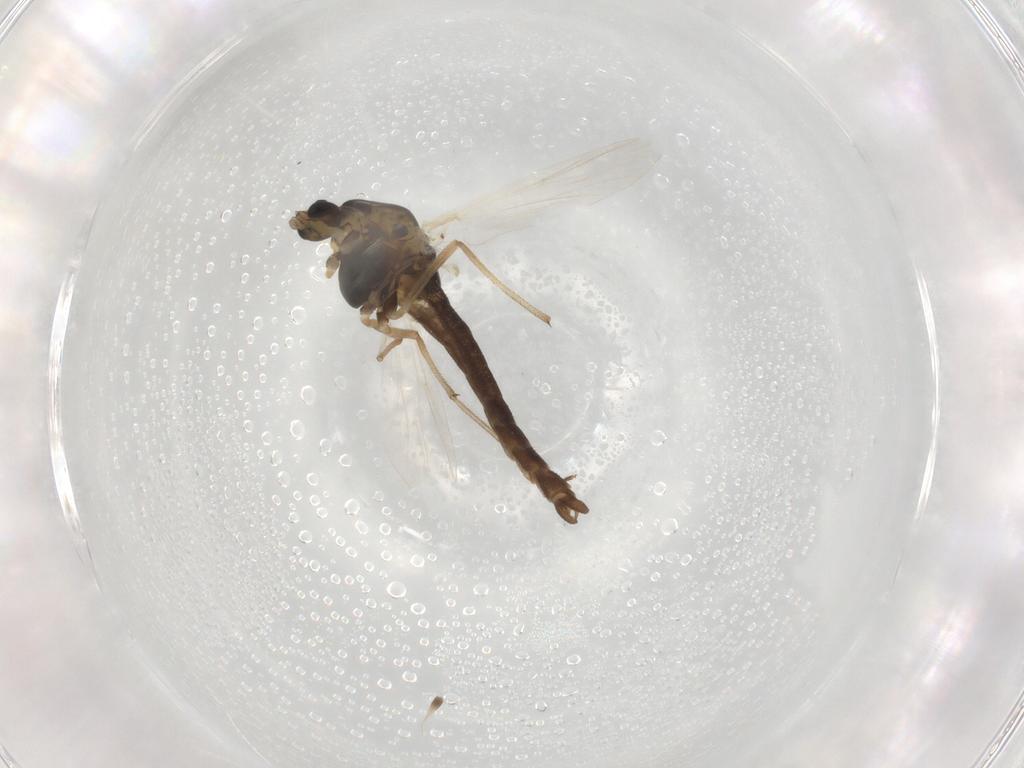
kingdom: Animalia
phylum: Arthropoda
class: Insecta
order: Diptera
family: Chironomidae
